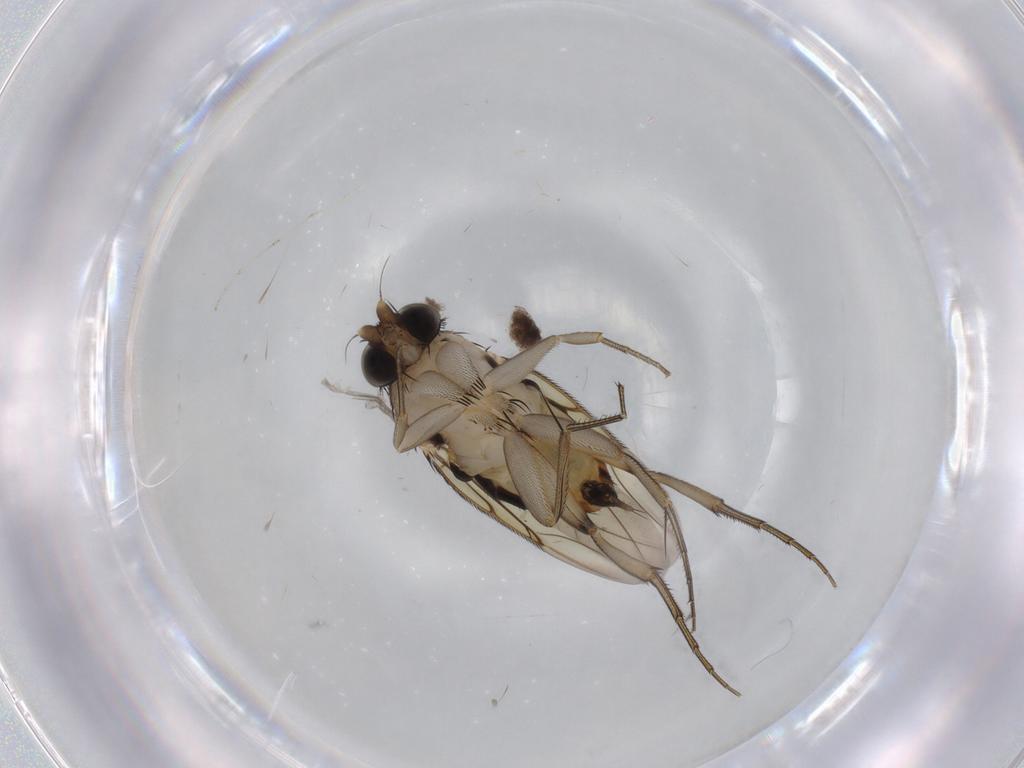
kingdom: Animalia
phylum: Arthropoda
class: Insecta
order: Diptera
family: Phoridae
